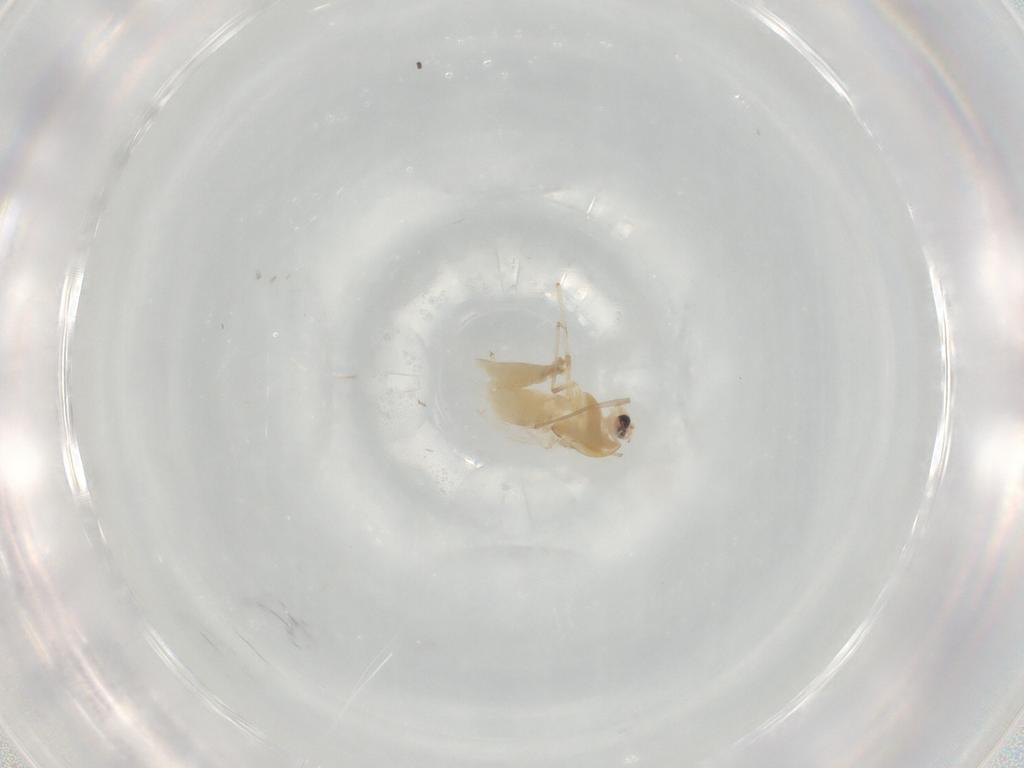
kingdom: Animalia
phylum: Arthropoda
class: Insecta
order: Diptera
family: Chironomidae
